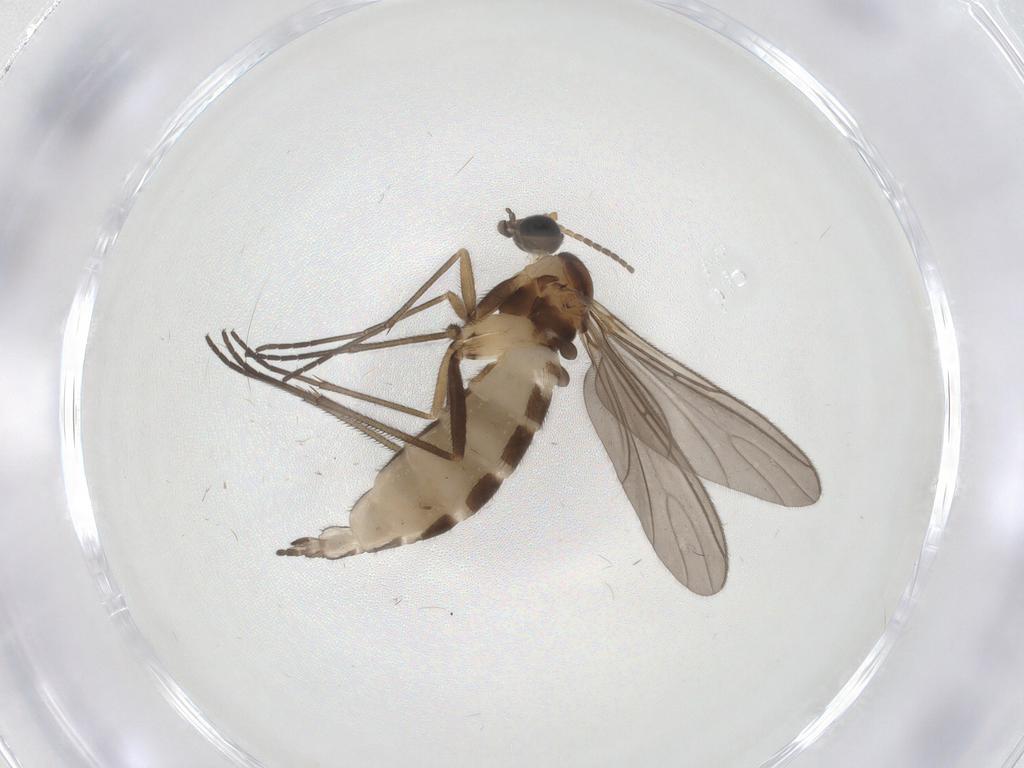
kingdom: Animalia
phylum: Arthropoda
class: Insecta
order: Diptera
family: Sciaridae
